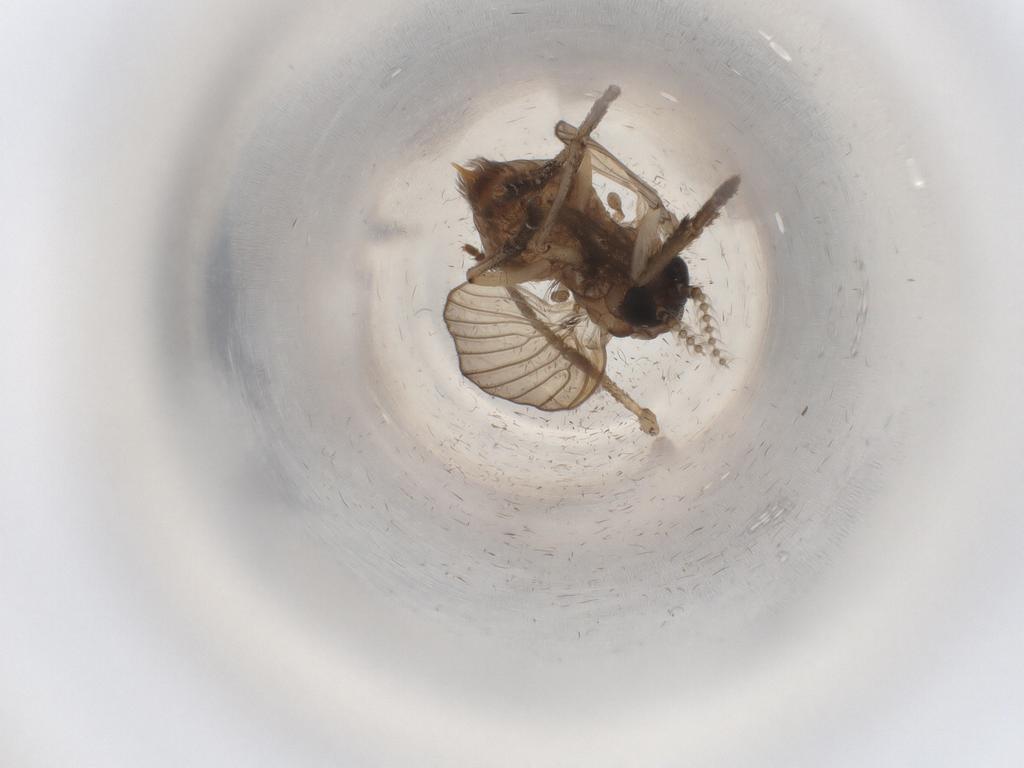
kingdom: Animalia
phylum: Arthropoda
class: Insecta
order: Diptera
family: Psychodidae
